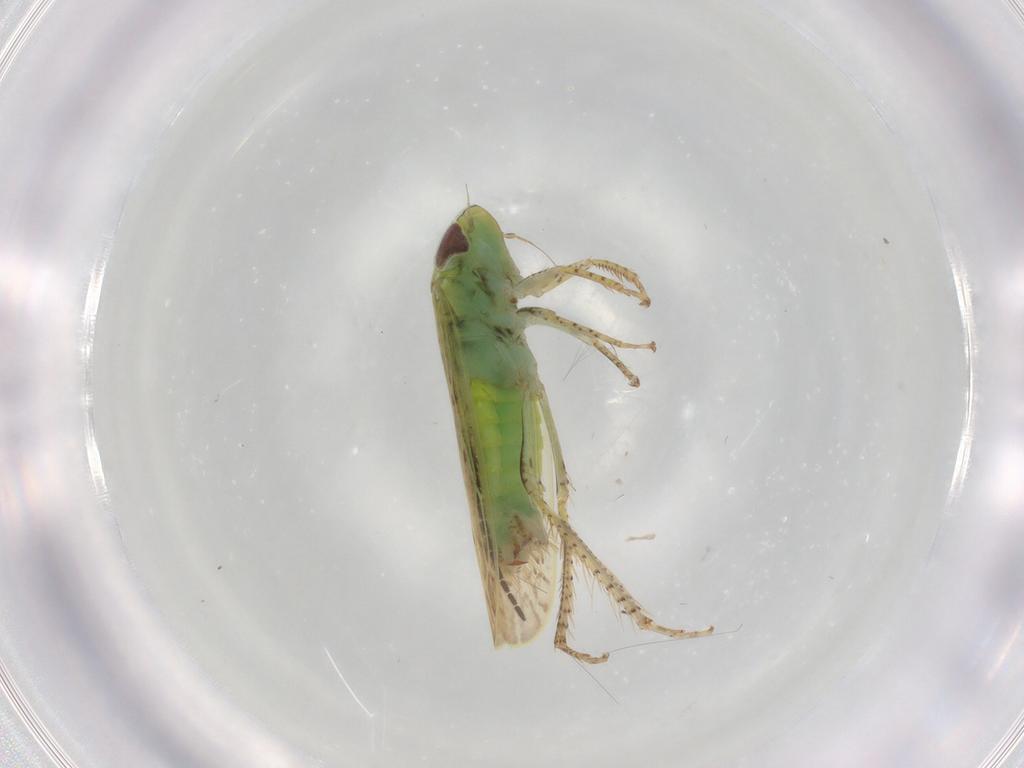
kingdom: Animalia
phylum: Arthropoda
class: Insecta
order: Hemiptera
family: Cicadellidae
